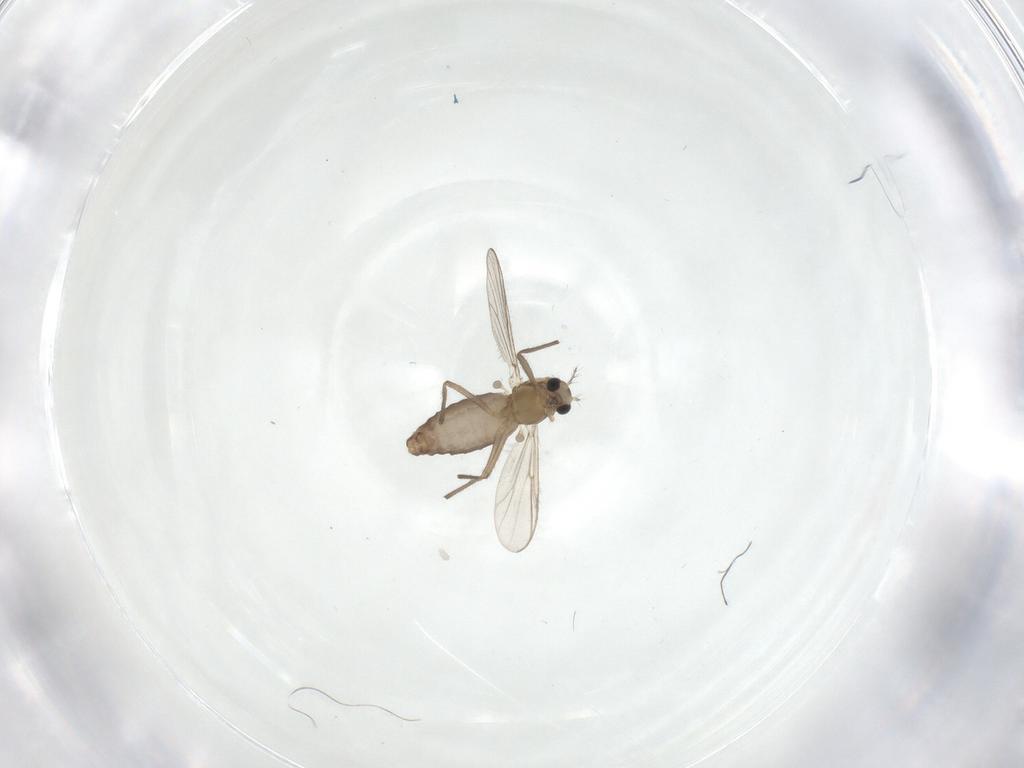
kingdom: Animalia
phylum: Arthropoda
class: Insecta
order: Diptera
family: Chironomidae
